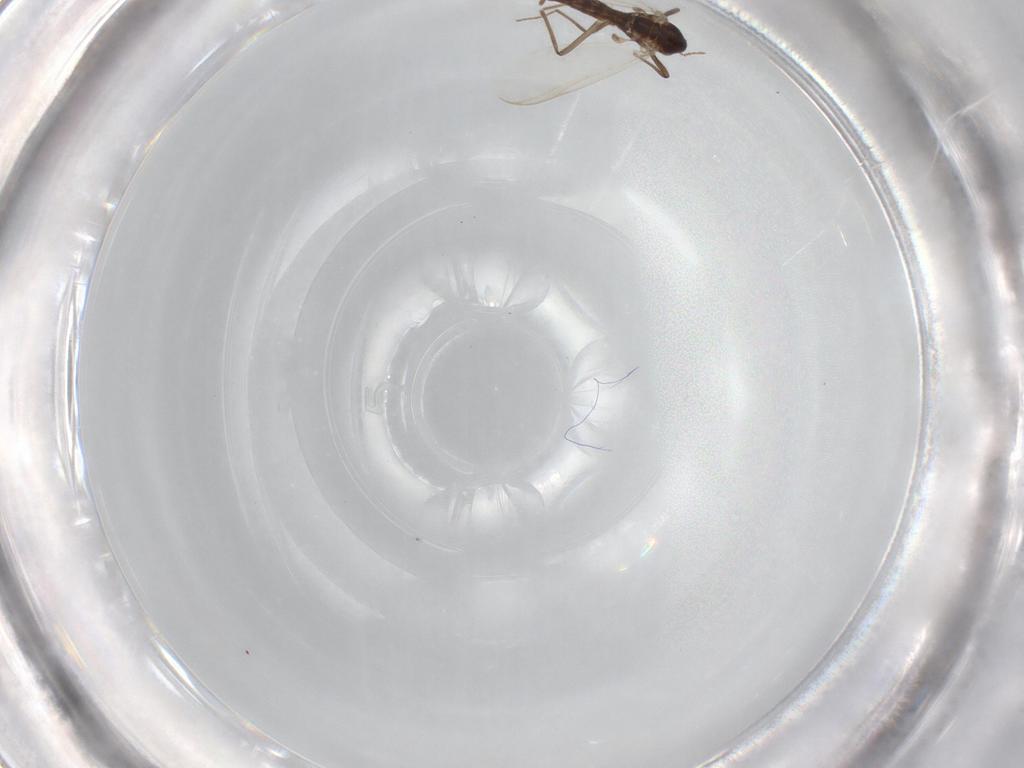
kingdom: Animalia
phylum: Arthropoda
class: Insecta
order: Diptera
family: Chironomidae
